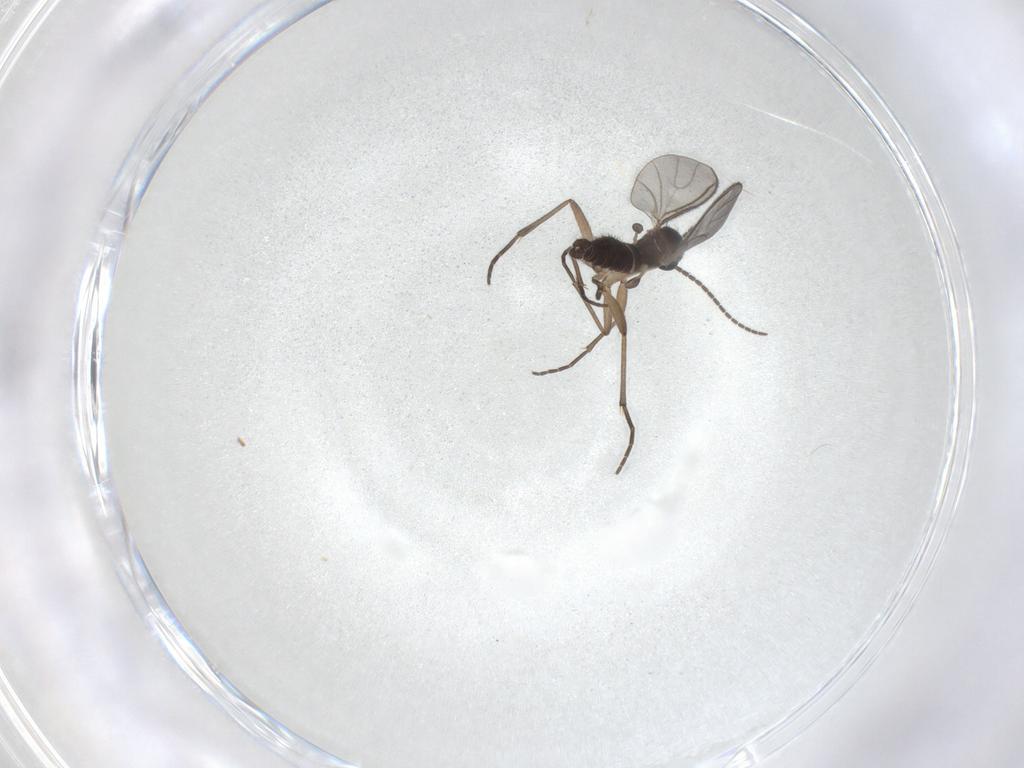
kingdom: Animalia
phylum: Arthropoda
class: Insecta
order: Diptera
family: Sciaridae
